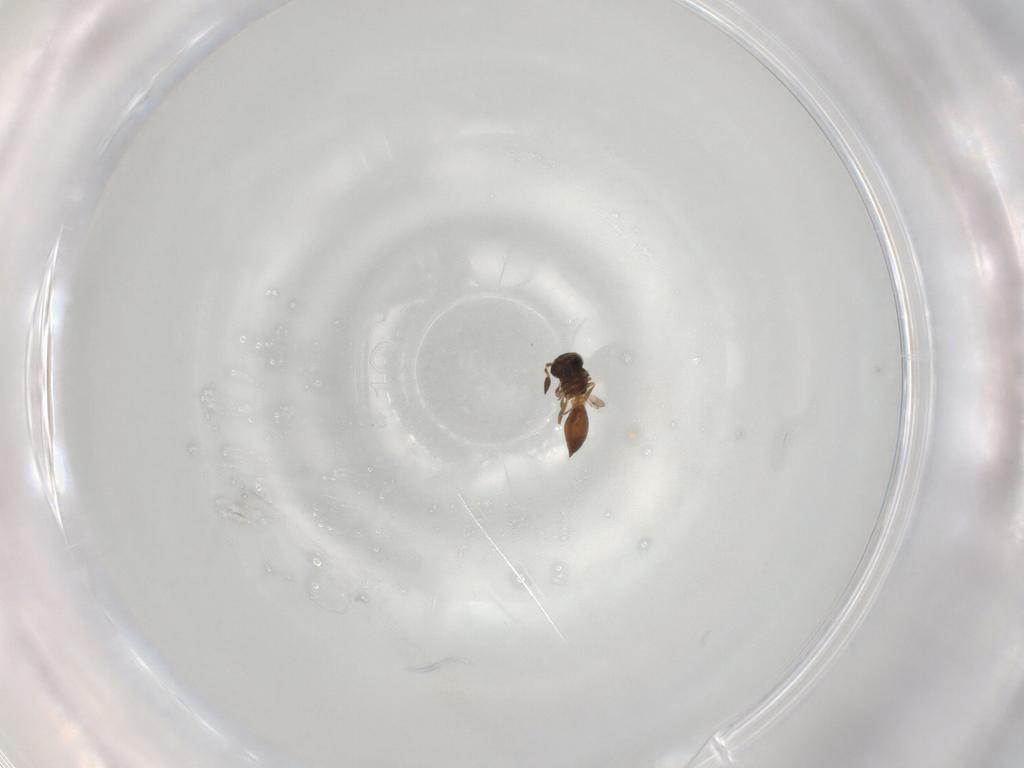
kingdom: Animalia
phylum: Arthropoda
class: Insecta
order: Hymenoptera
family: Scelionidae
